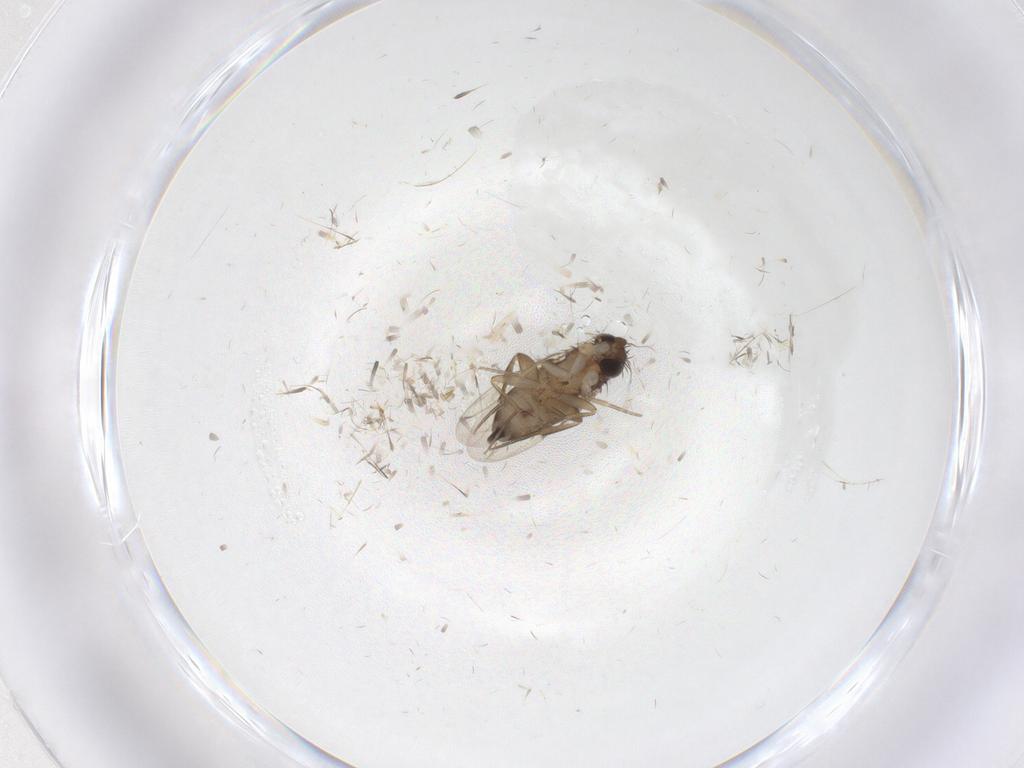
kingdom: Animalia
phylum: Arthropoda
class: Insecta
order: Diptera
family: Phoridae
